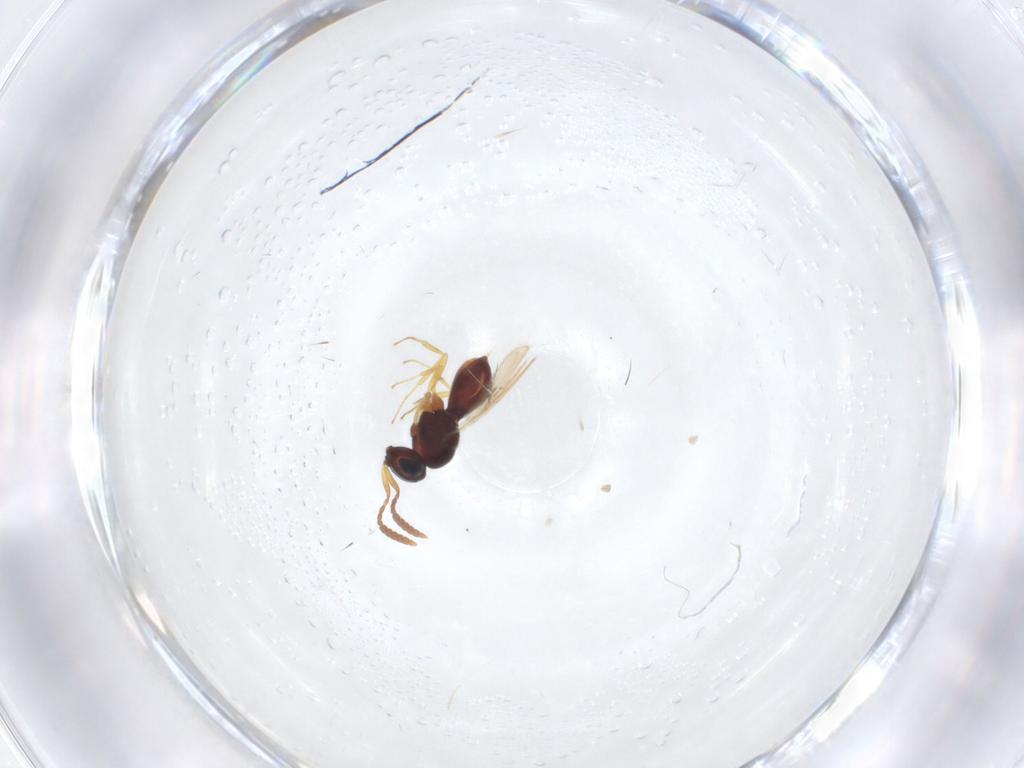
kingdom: Animalia
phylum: Arthropoda
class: Insecta
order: Hymenoptera
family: Scelionidae
